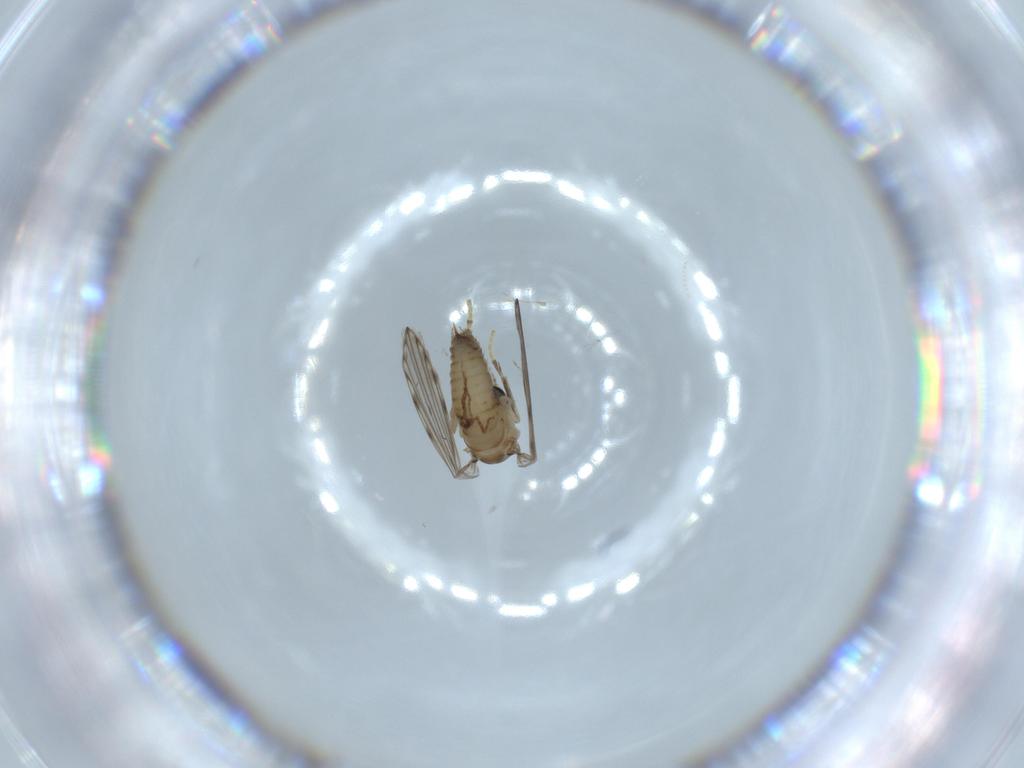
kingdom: Animalia
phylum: Arthropoda
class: Insecta
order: Diptera
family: Psychodidae
